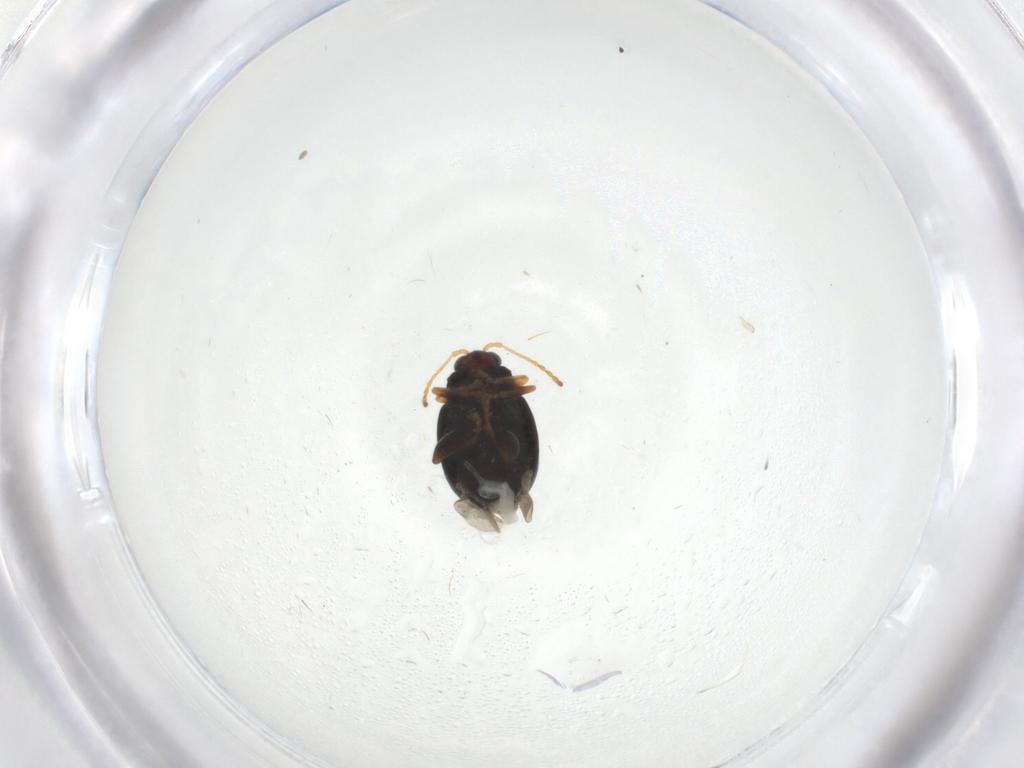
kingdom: Animalia
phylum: Arthropoda
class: Insecta
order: Coleoptera
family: Chrysomelidae
